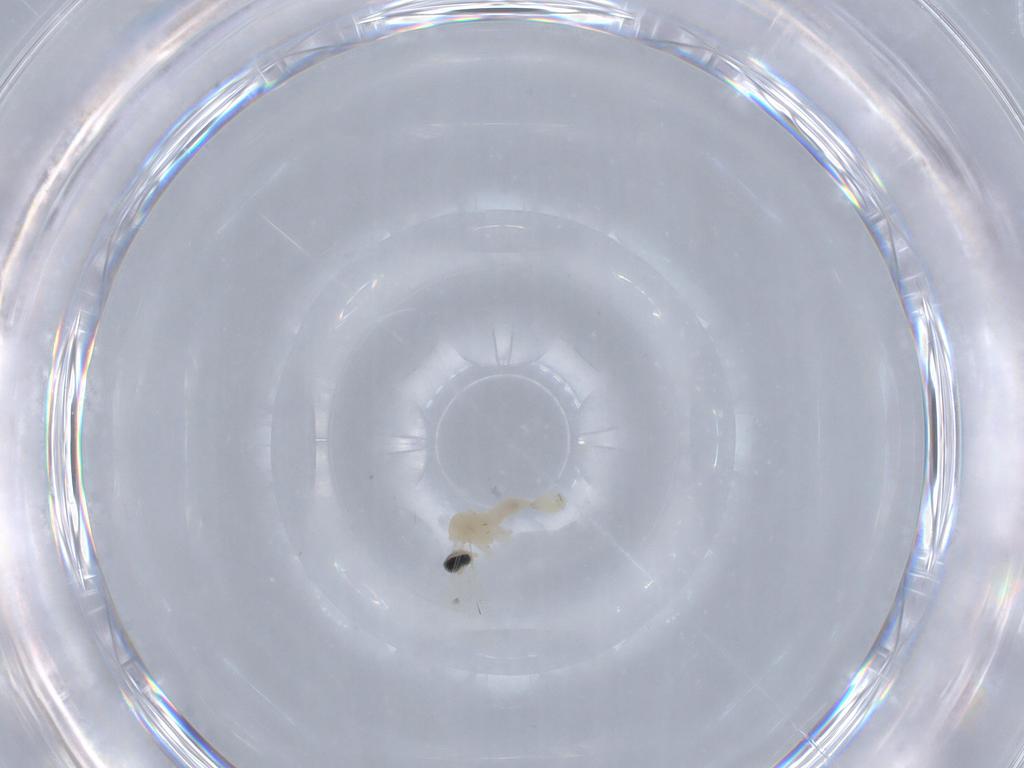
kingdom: Animalia
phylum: Arthropoda
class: Insecta
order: Diptera
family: Cecidomyiidae
